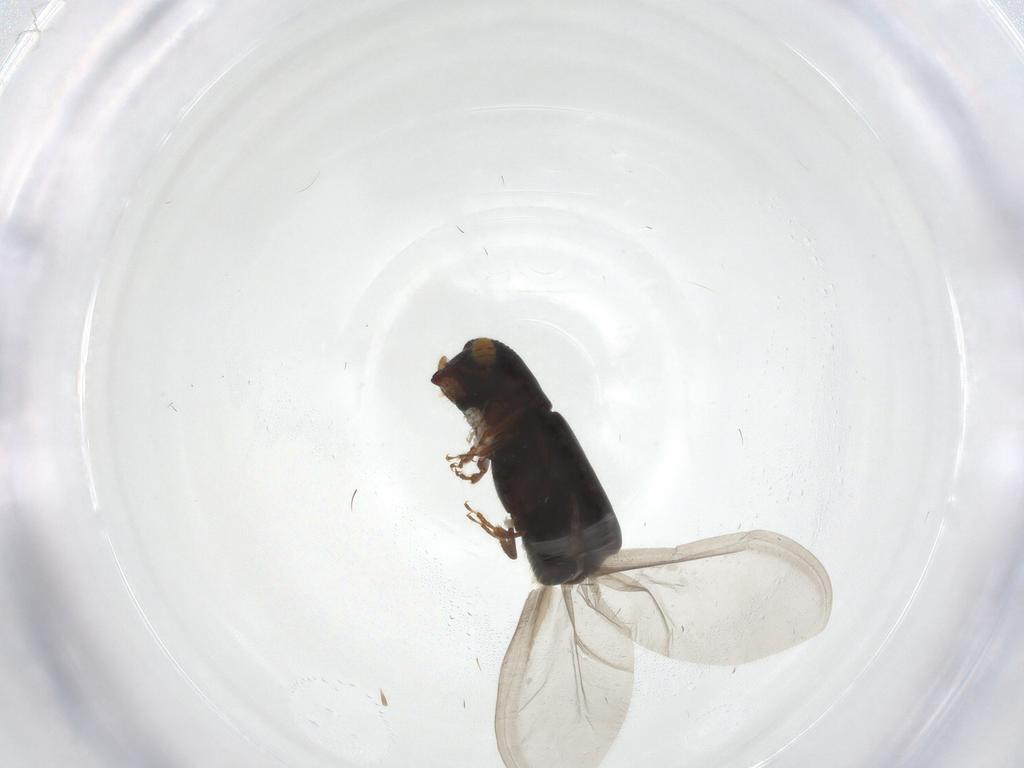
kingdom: Animalia
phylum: Arthropoda
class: Insecta
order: Coleoptera
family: Curculionidae
